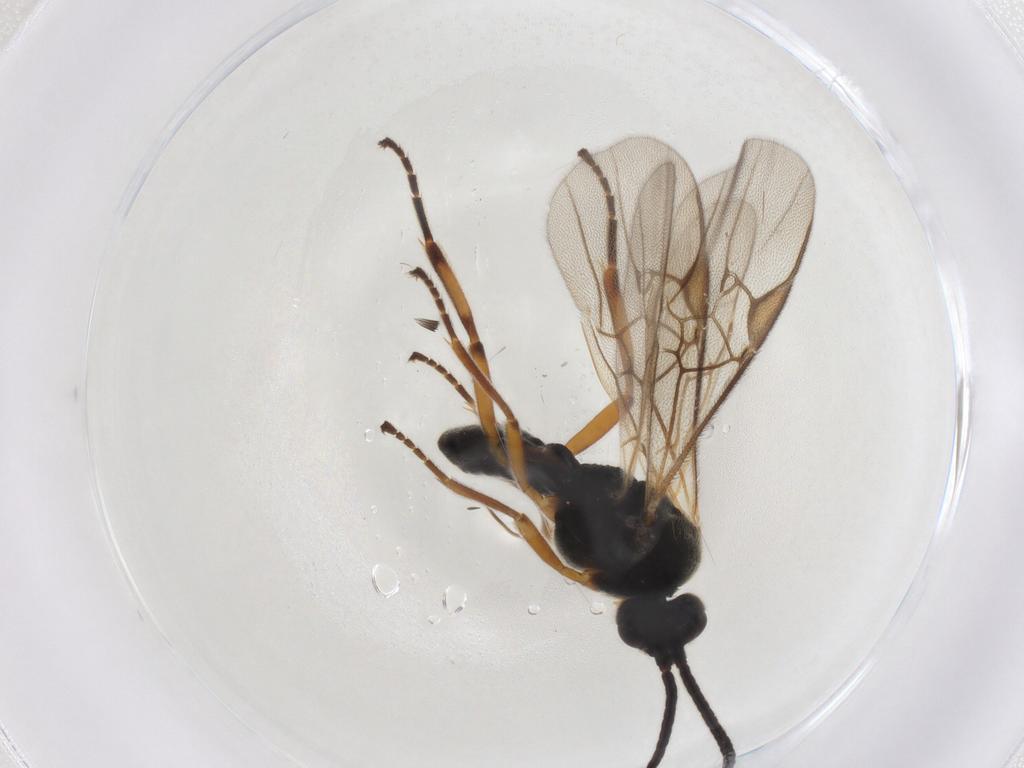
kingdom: Animalia
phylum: Arthropoda
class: Insecta
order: Hymenoptera
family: Braconidae
